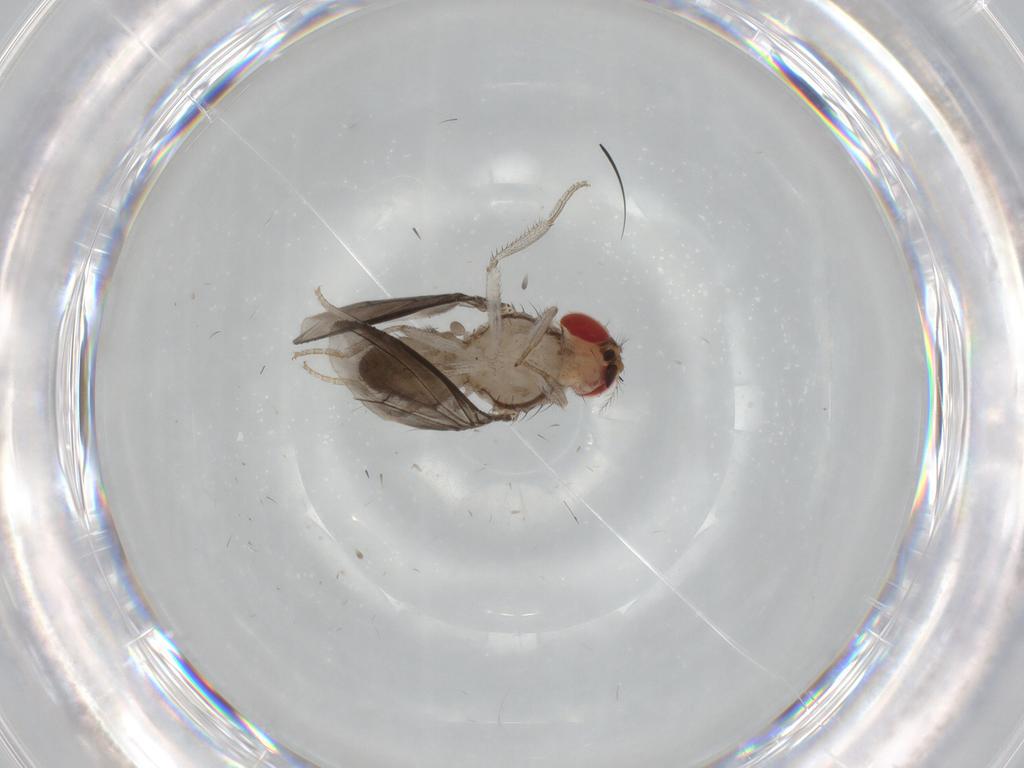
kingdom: Animalia
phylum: Arthropoda
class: Insecta
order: Diptera
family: Drosophilidae
